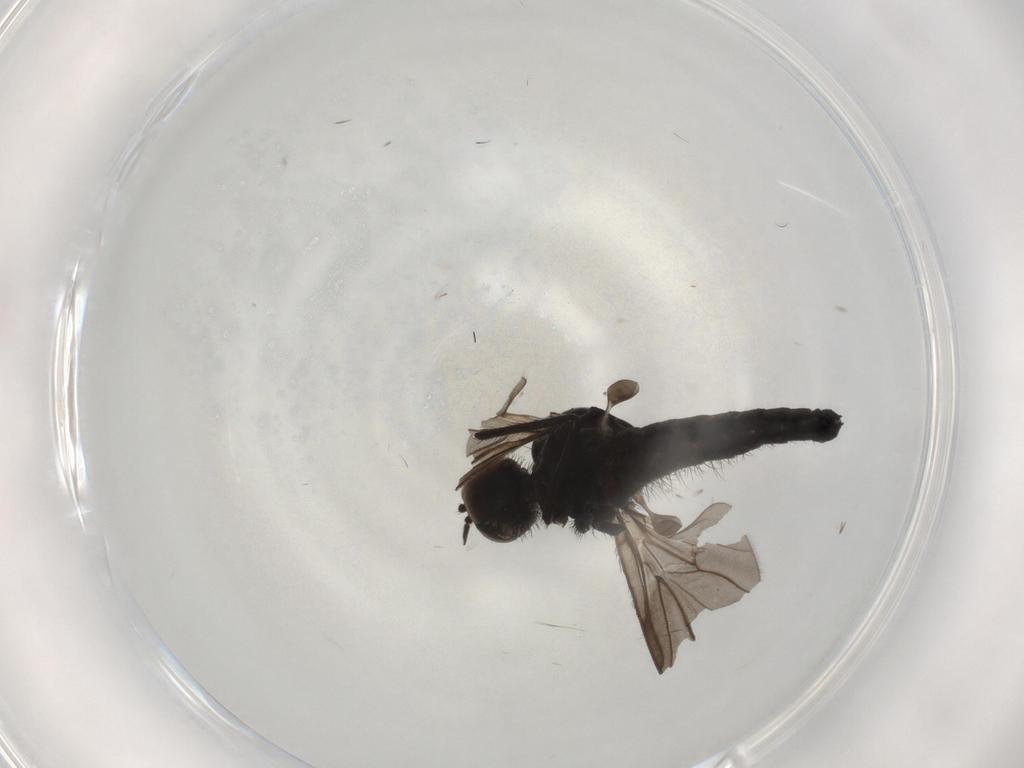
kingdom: Animalia
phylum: Arthropoda
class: Insecta
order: Diptera
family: Hybotidae
